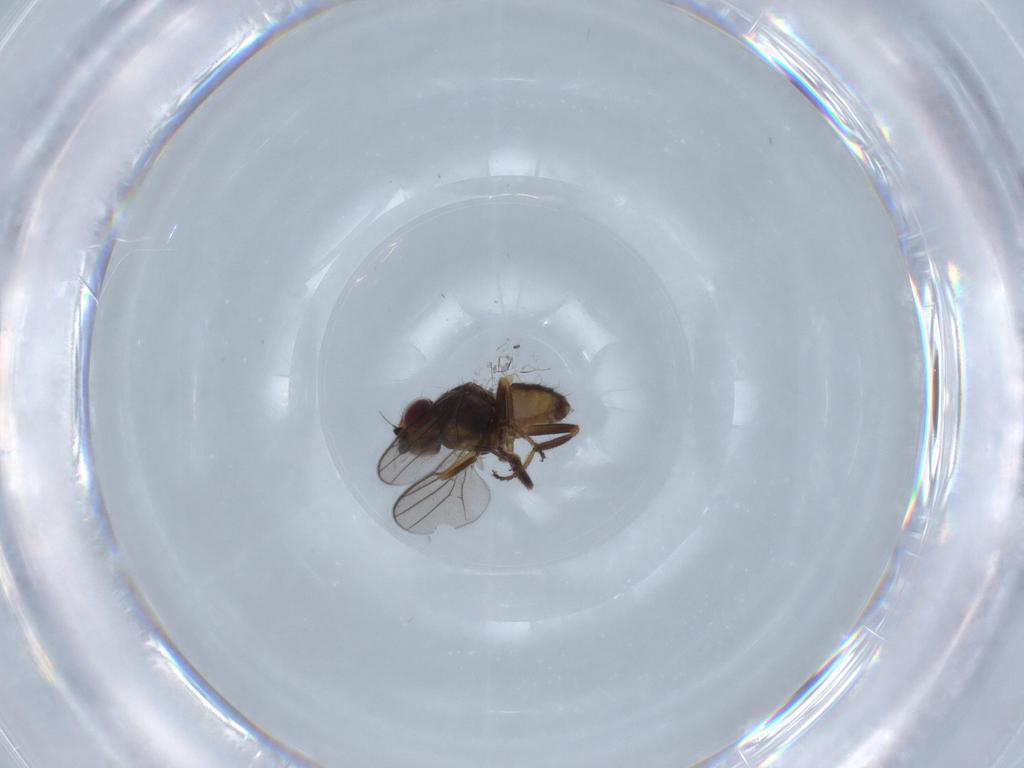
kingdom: Animalia
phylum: Arthropoda
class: Insecta
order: Diptera
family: Chloropidae
